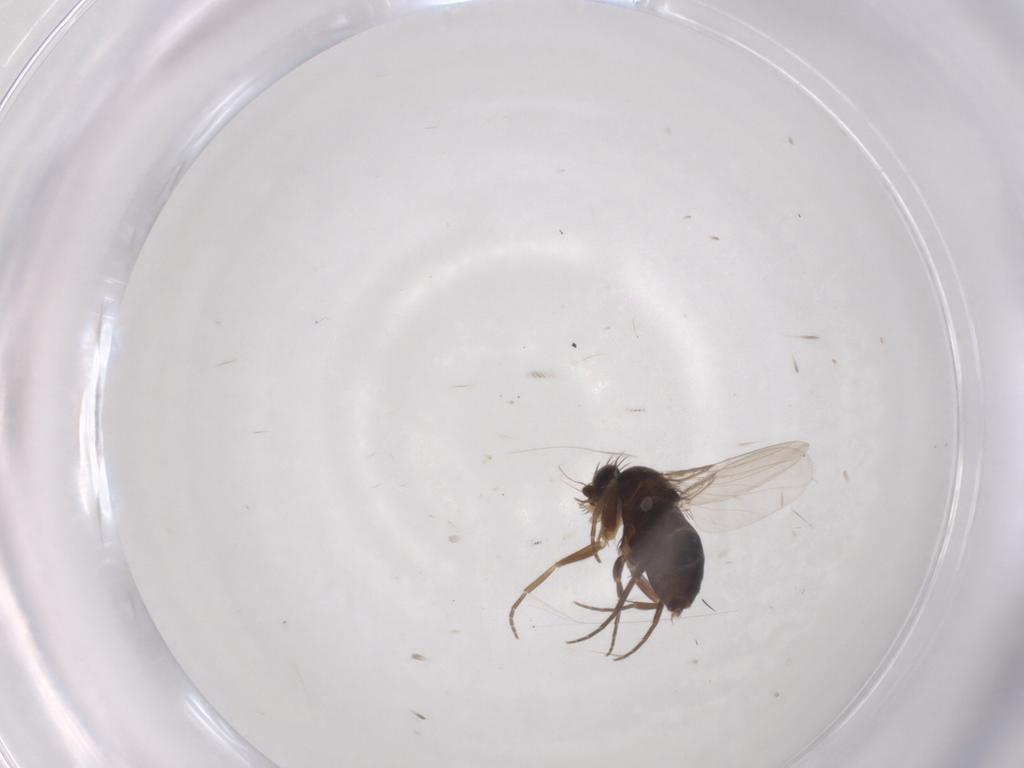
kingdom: Animalia
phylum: Arthropoda
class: Insecta
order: Diptera
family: Phoridae
